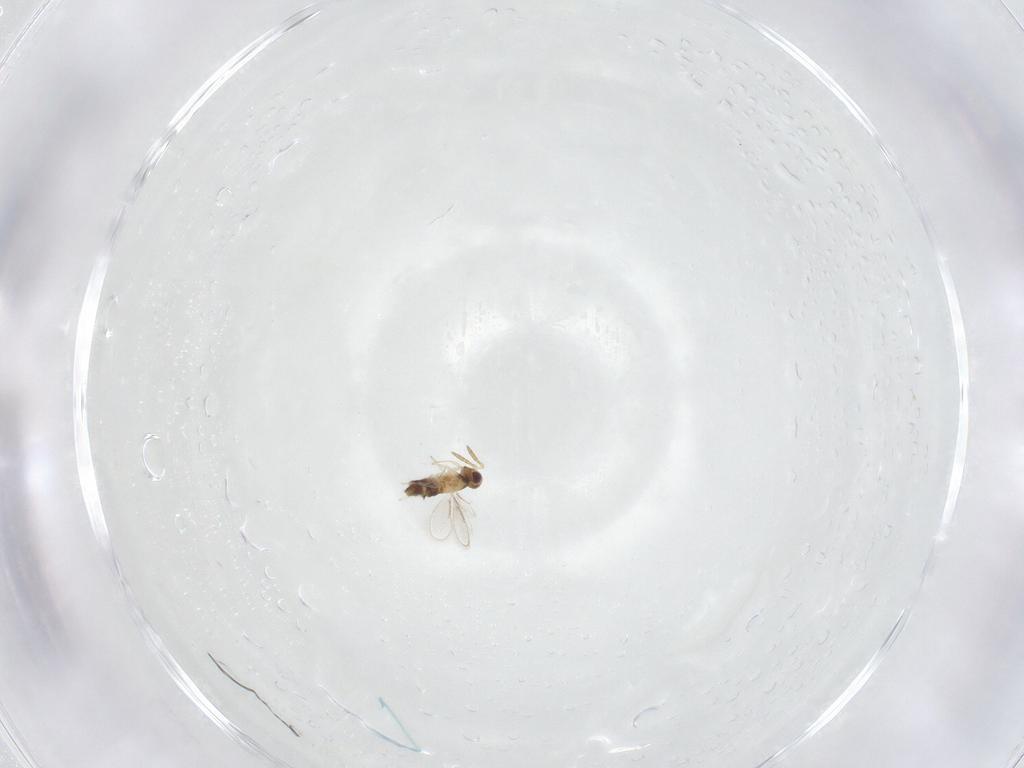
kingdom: Animalia
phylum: Arthropoda
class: Insecta
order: Hymenoptera
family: Aphelinidae
